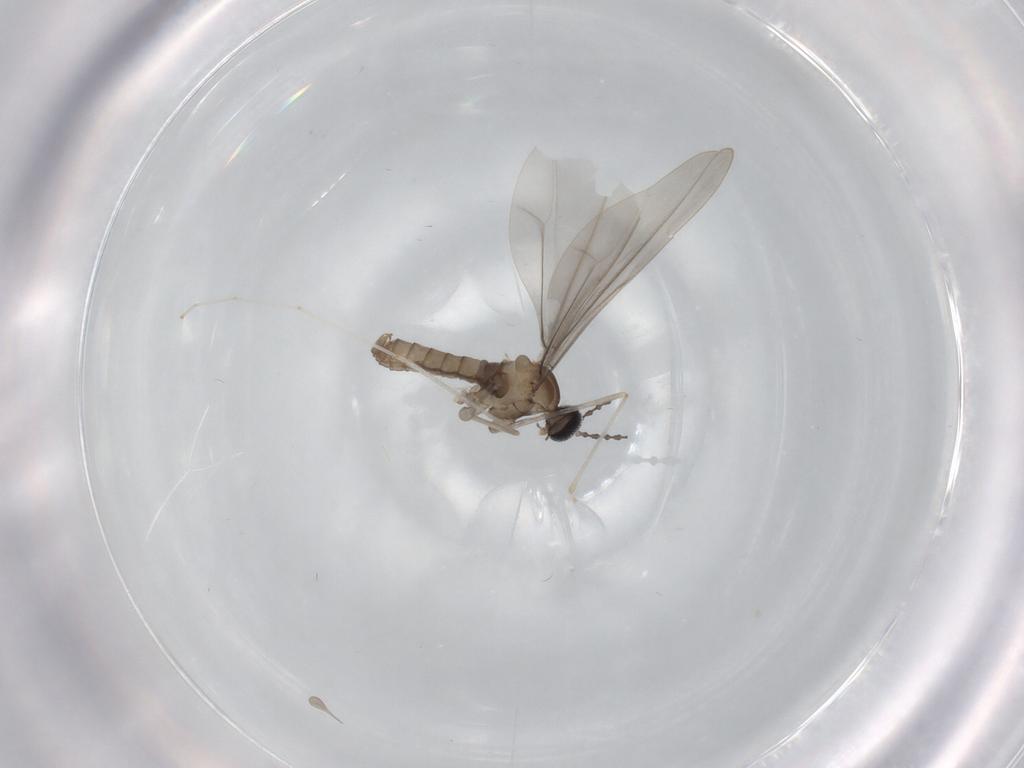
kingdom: Animalia
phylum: Arthropoda
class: Insecta
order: Diptera
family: Cecidomyiidae
